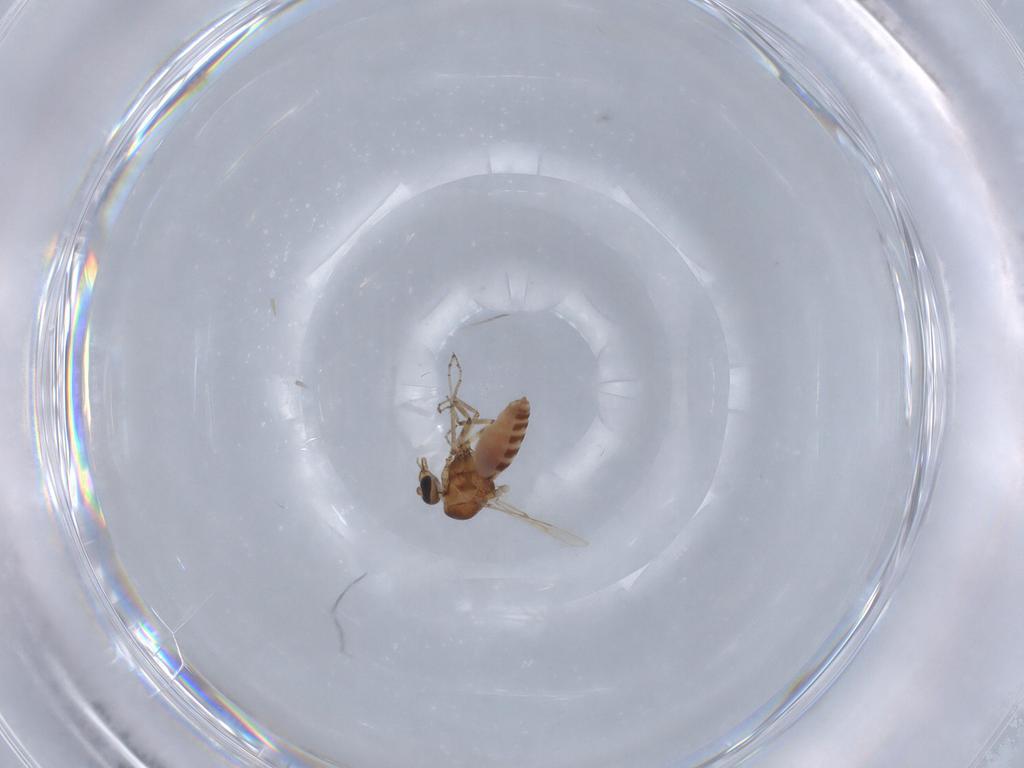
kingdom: Animalia
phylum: Arthropoda
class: Insecta
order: Diptera
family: Ceratopogonidae
